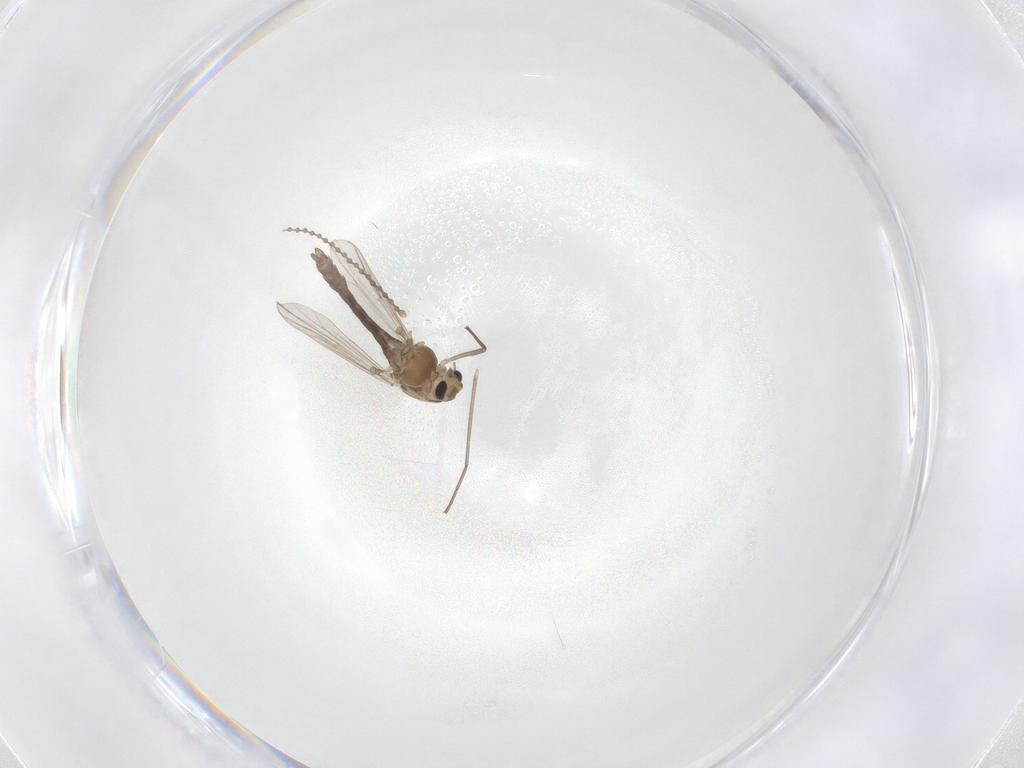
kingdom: Animalia
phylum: Arthropoda
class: Insecta
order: Diptera
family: Chironomidae
